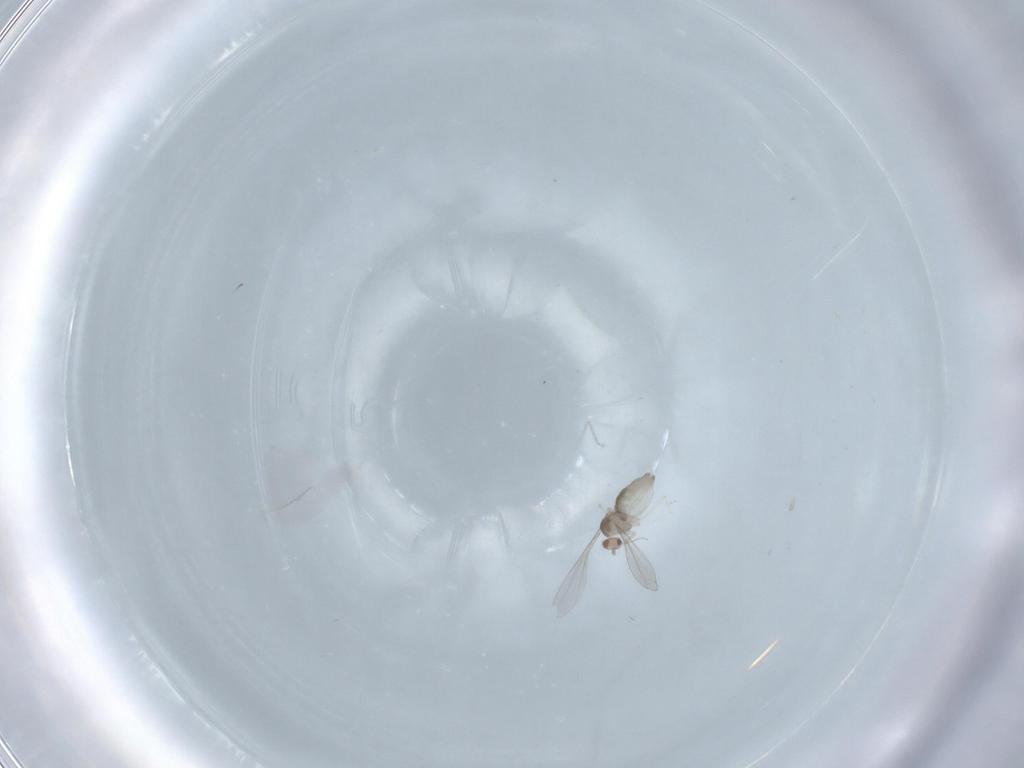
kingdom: Animalia
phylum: Arthropoda
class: Insecta
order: Diptera
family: Cecidomyiidae
